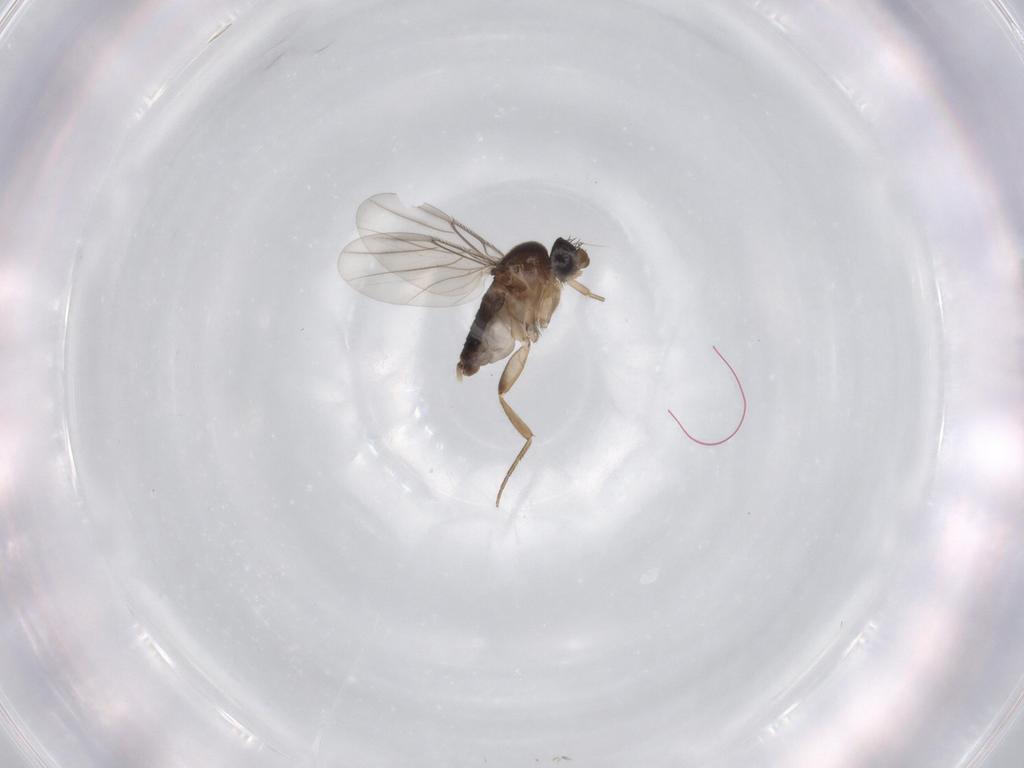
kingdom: Animalia
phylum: Arthropoda
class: Insecta
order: Diptera
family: Phoridae
